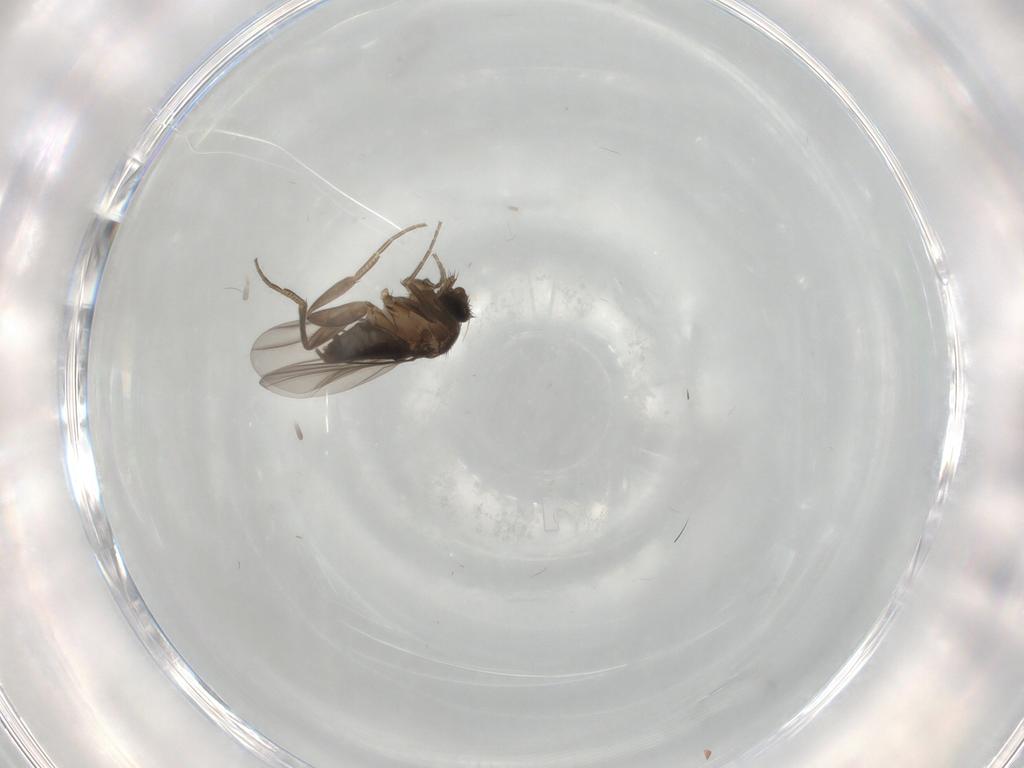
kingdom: Animalia
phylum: Arthropoda
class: Insecta
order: Diptera
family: Phoridae
